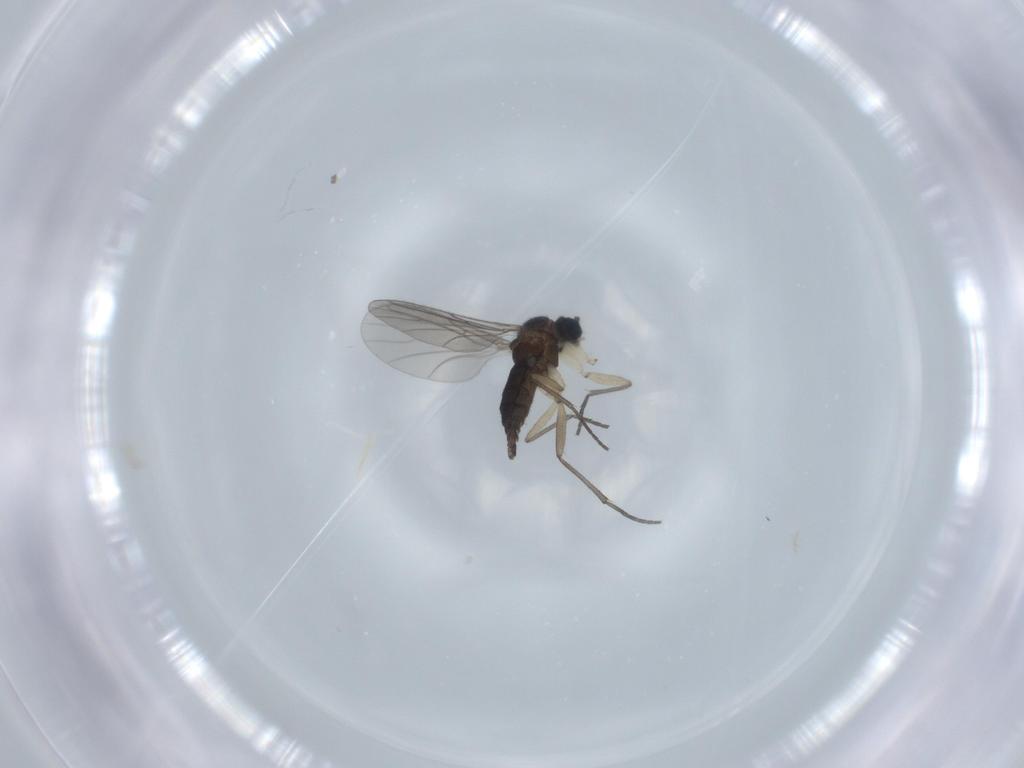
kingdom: Animalia
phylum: Arthropoda
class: Insecta
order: Diptera
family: Sciaridae
